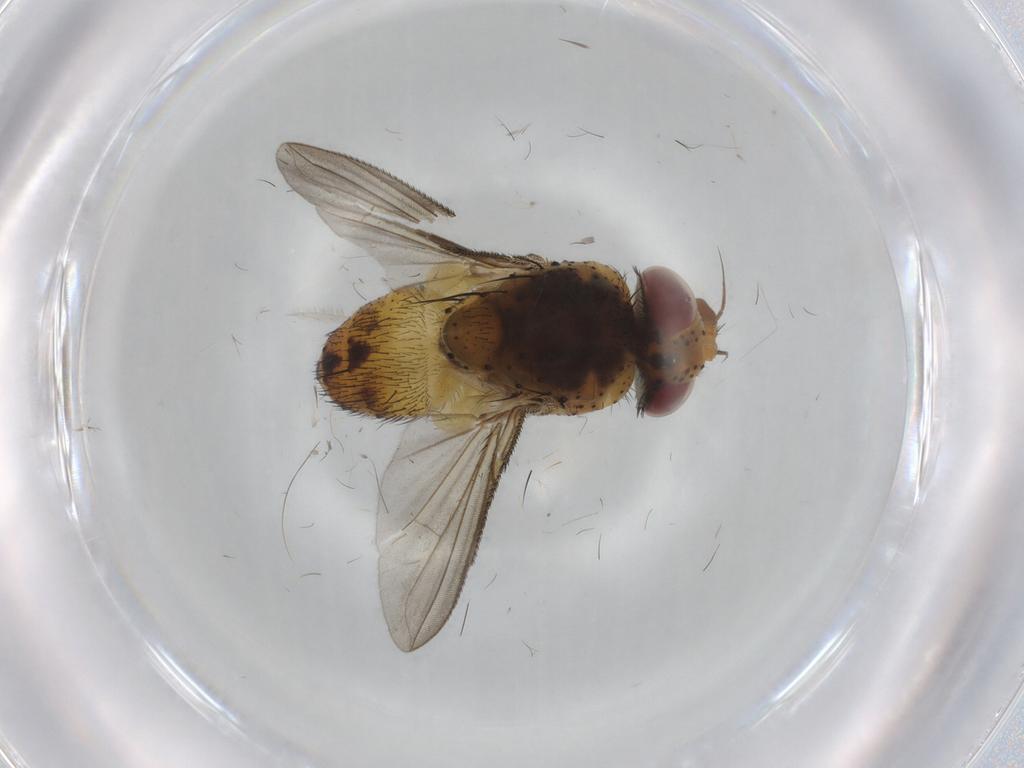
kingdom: Animalia
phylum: Arthropoda
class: Insecta
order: Diptera
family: Tachinidae
